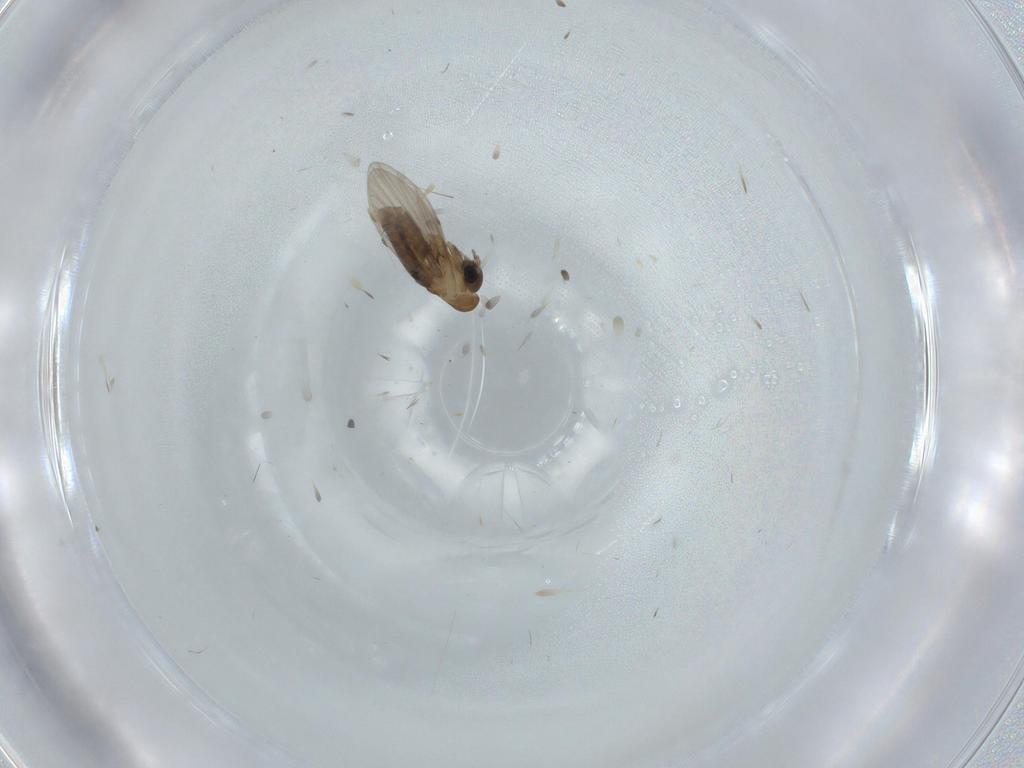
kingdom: Animalia
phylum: Arthropoda
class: Insecta
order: Diptera
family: Psychodidae
